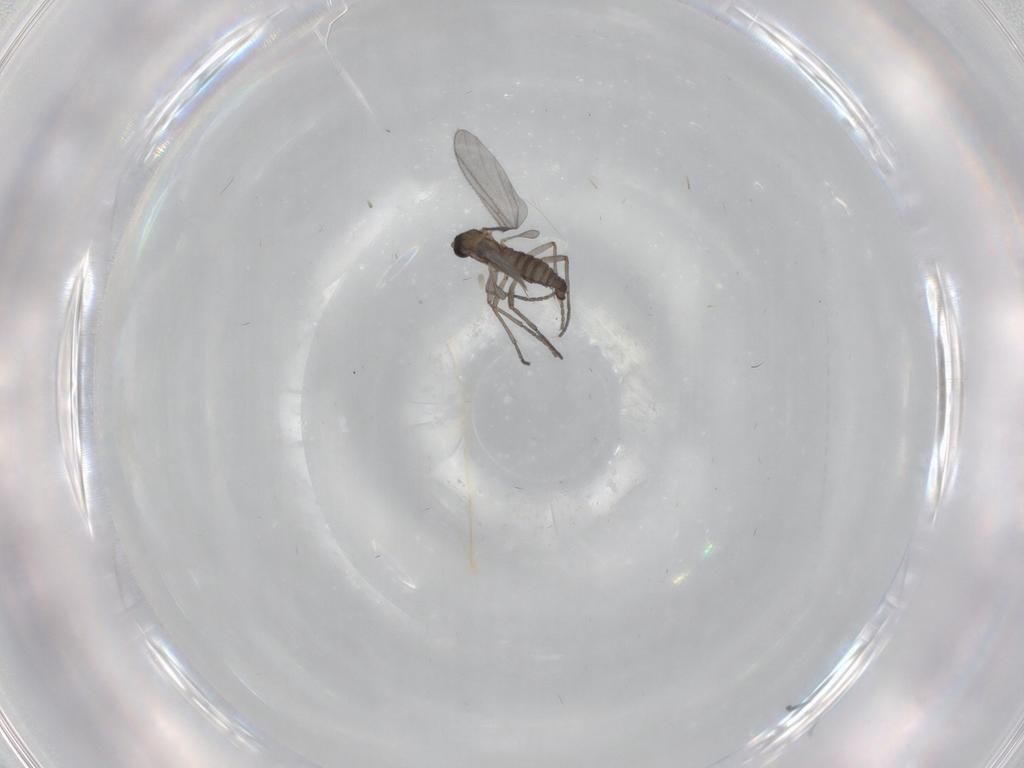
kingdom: Animalia
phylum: Arthropoda
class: Insecta
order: Diptera
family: Sciaridae
